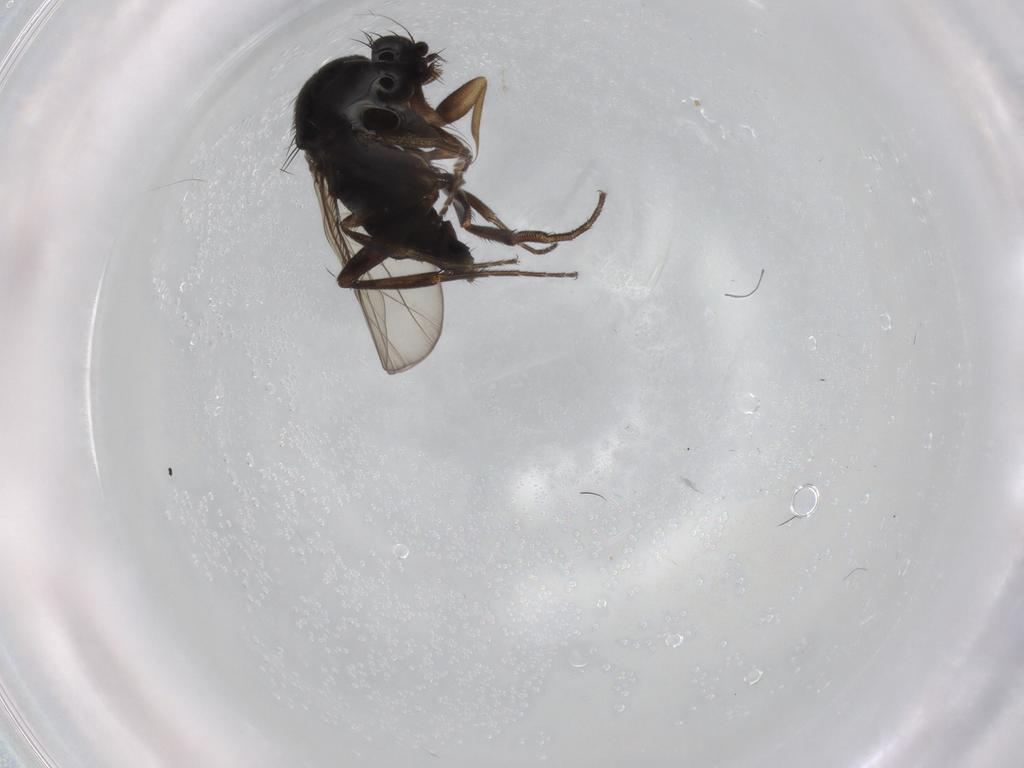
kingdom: Animalia
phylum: Arthropoda
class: Insecta
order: Diptera
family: Phoridae
